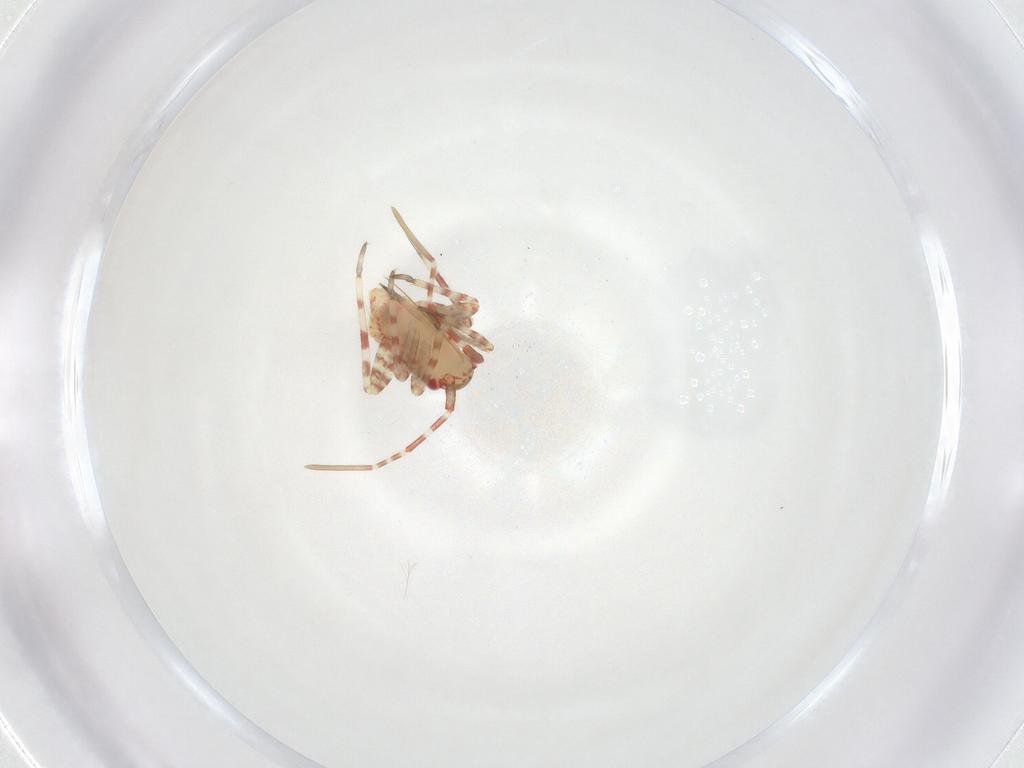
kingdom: Animalia
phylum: Arthropoda
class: Insecta
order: Hemiptera
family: Miridae
